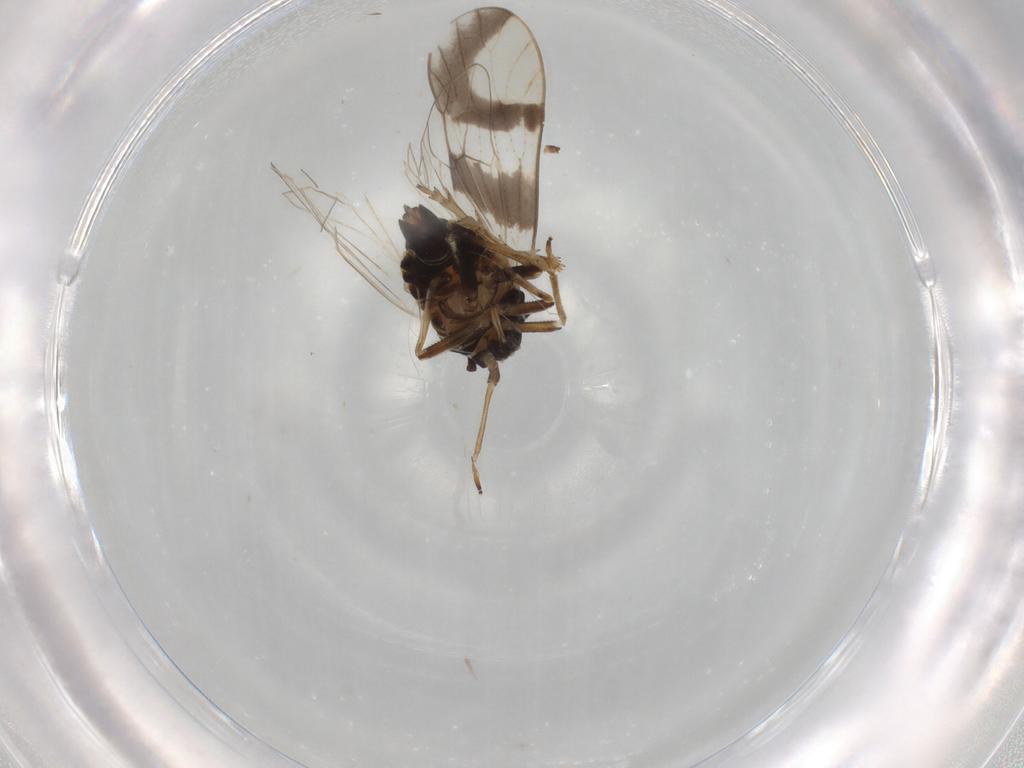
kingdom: Animalia
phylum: Arthropoda
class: Insecta
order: Hemiptera
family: Delphacidae
